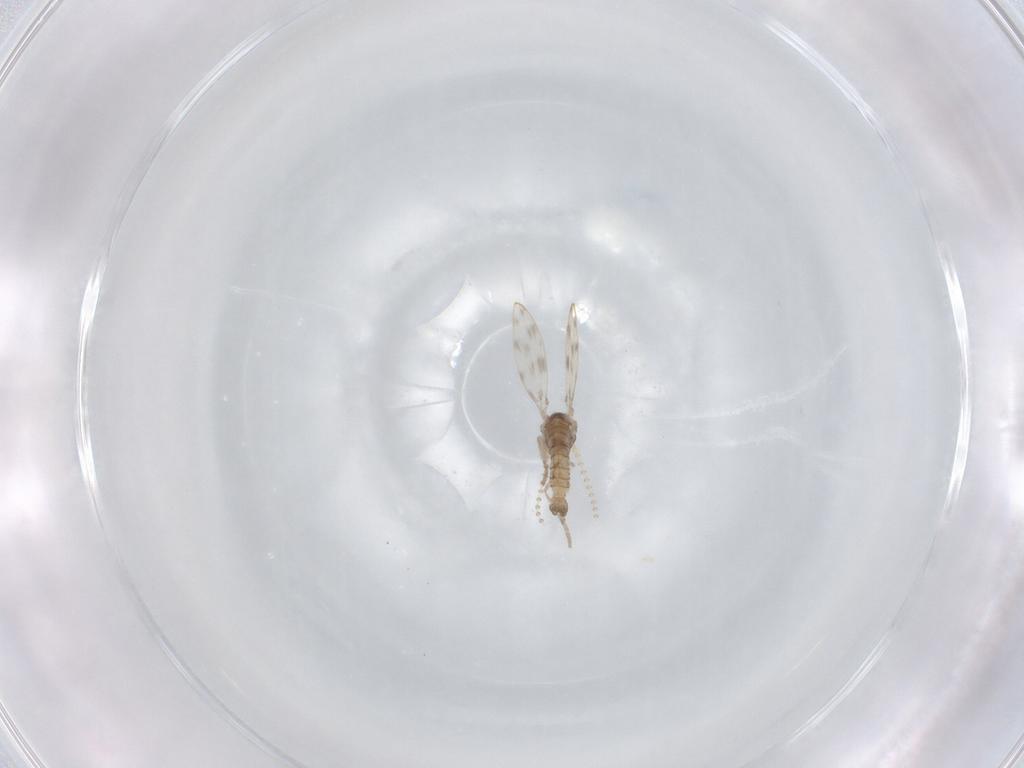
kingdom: Animalia
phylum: Arthropoda
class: Insecta
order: Diptera
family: Psychodidae
